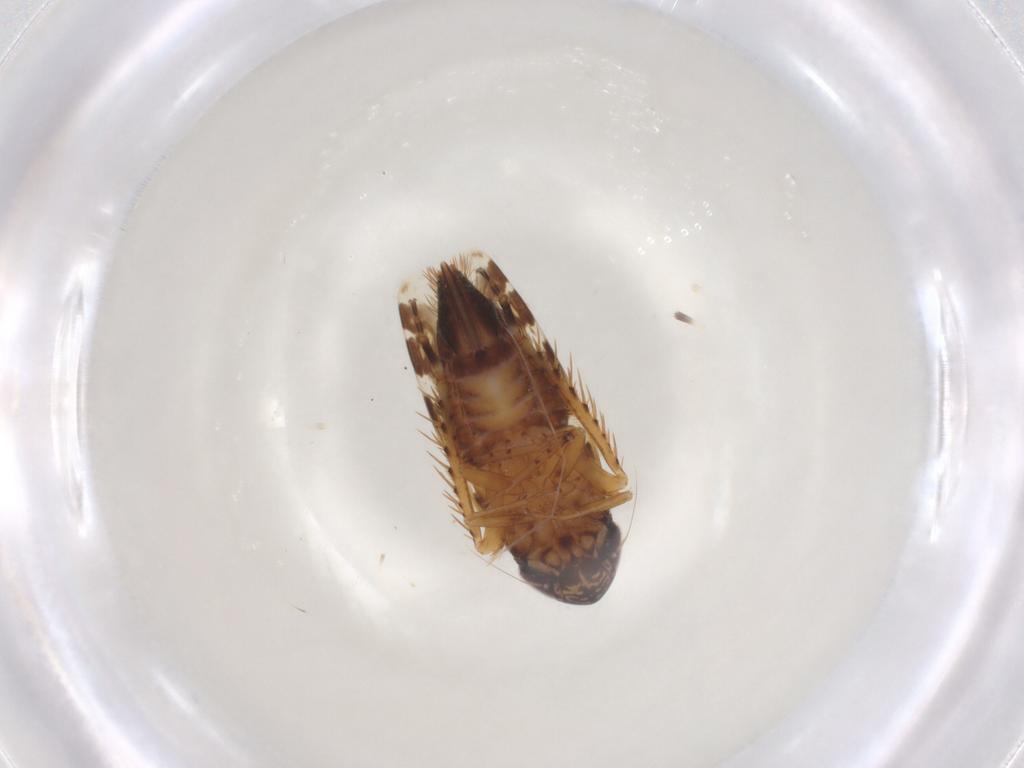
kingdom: Animalia
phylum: Arthropoda
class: Insecta
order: Hemiptera
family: Cicadellidae
